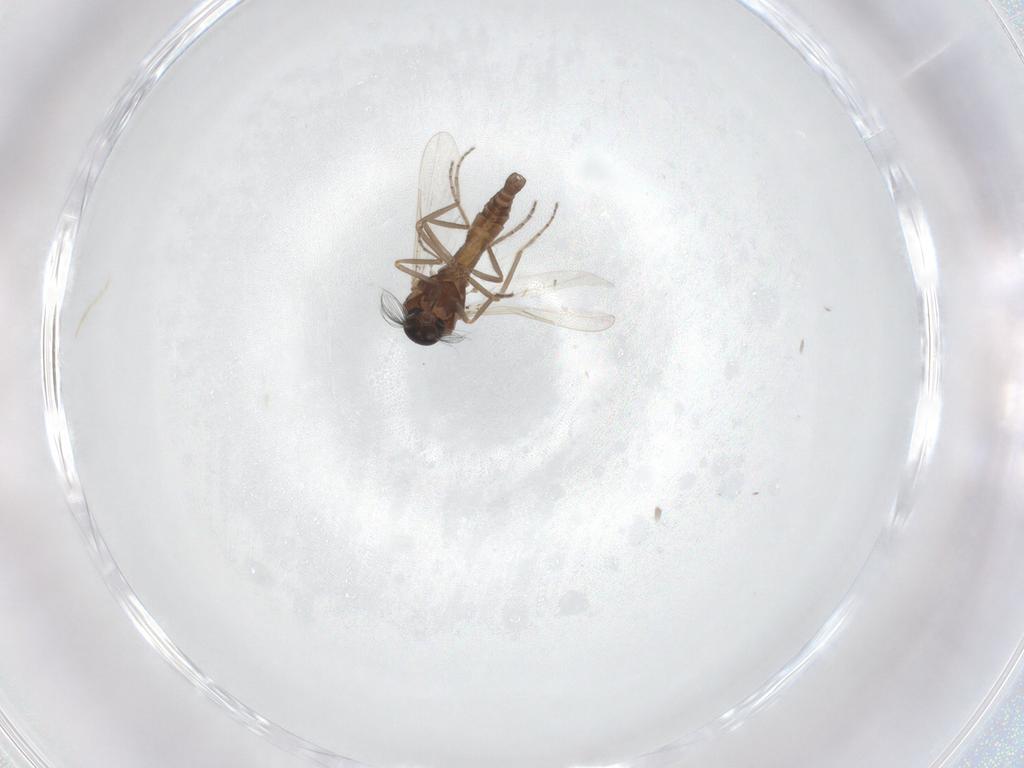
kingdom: Animalia
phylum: Arthropoda
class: Insecta
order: Diptera
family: Ceratopogonidae
